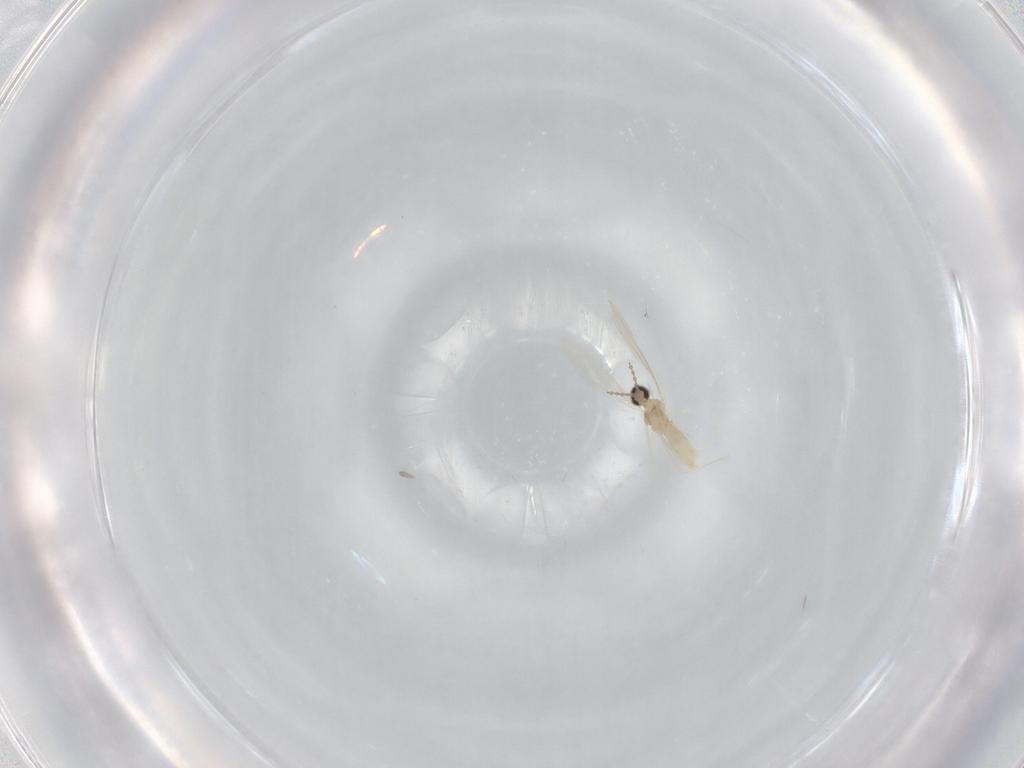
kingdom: Animalia
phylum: Arthropoda
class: Insecta
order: Diptera
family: Cecidomyiidae
